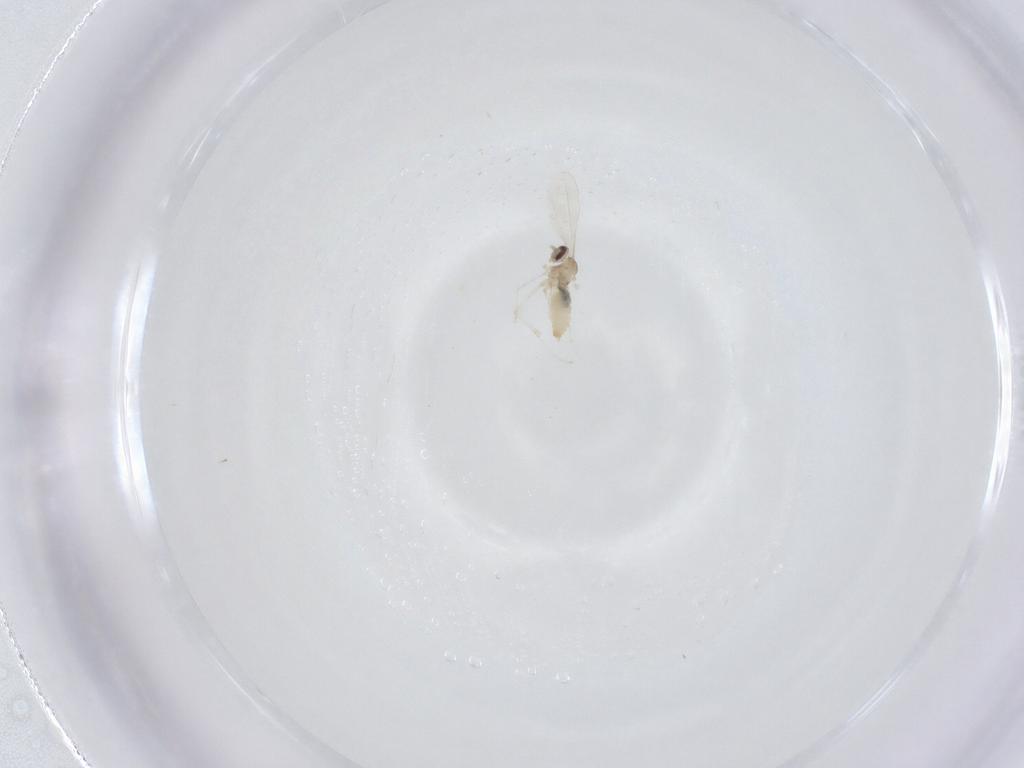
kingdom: Animalia
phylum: Arthropoda
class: Insecta
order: Diptera
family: Cecidomyiidae
